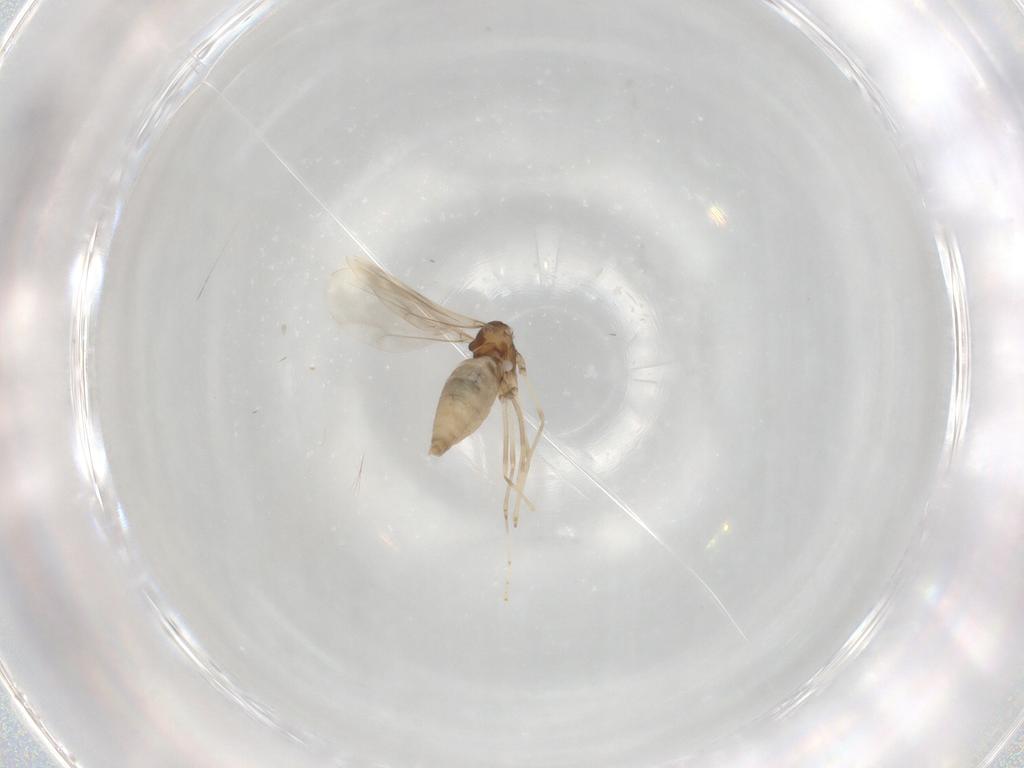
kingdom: Animalia
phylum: Arthropoda
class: Insecta
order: Diptera
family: Cecidomyiidae
